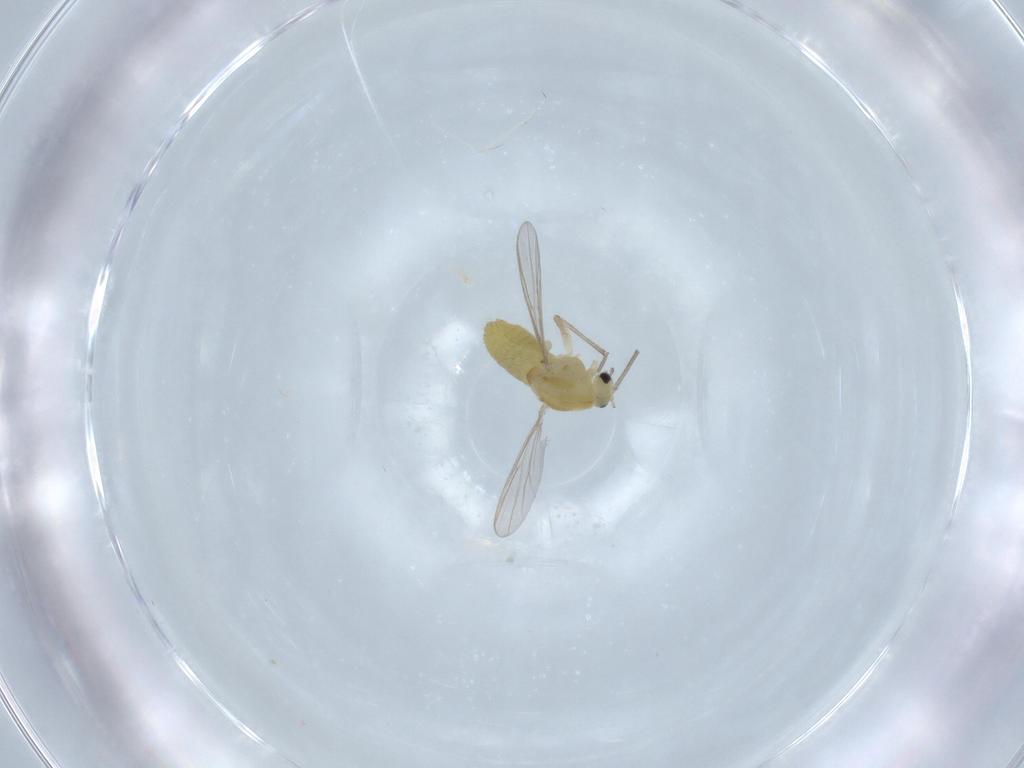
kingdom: Animalia
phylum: Arthropoda
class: Insecta
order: Diptera
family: Chironomidae
